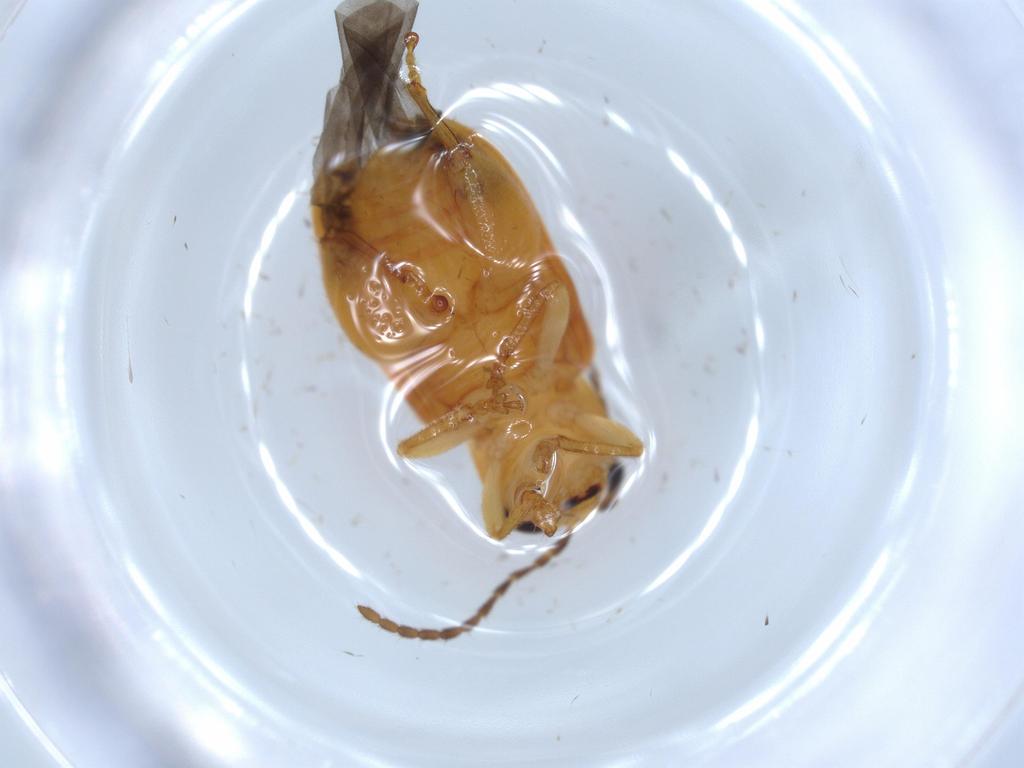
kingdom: Animalia
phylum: Arthropoda
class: Insecta
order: Coleoptera
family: Chrysomelidae
